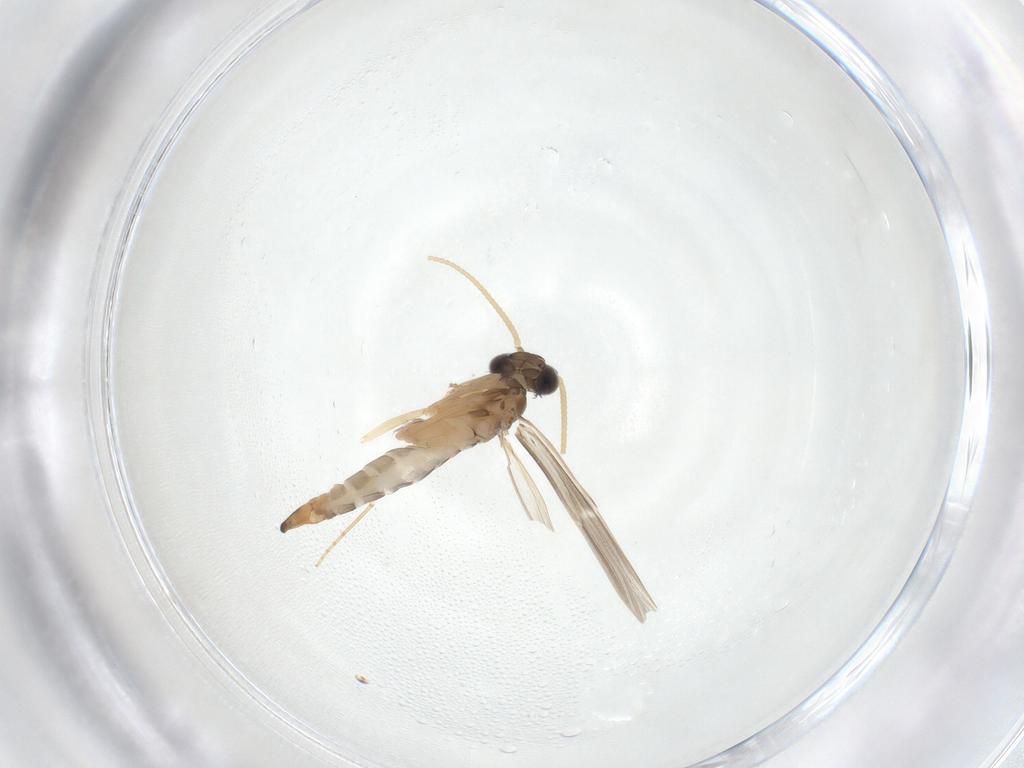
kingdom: Animalia
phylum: Arthropoda
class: Insecta
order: Trichoptera
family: Hydroptilidae
